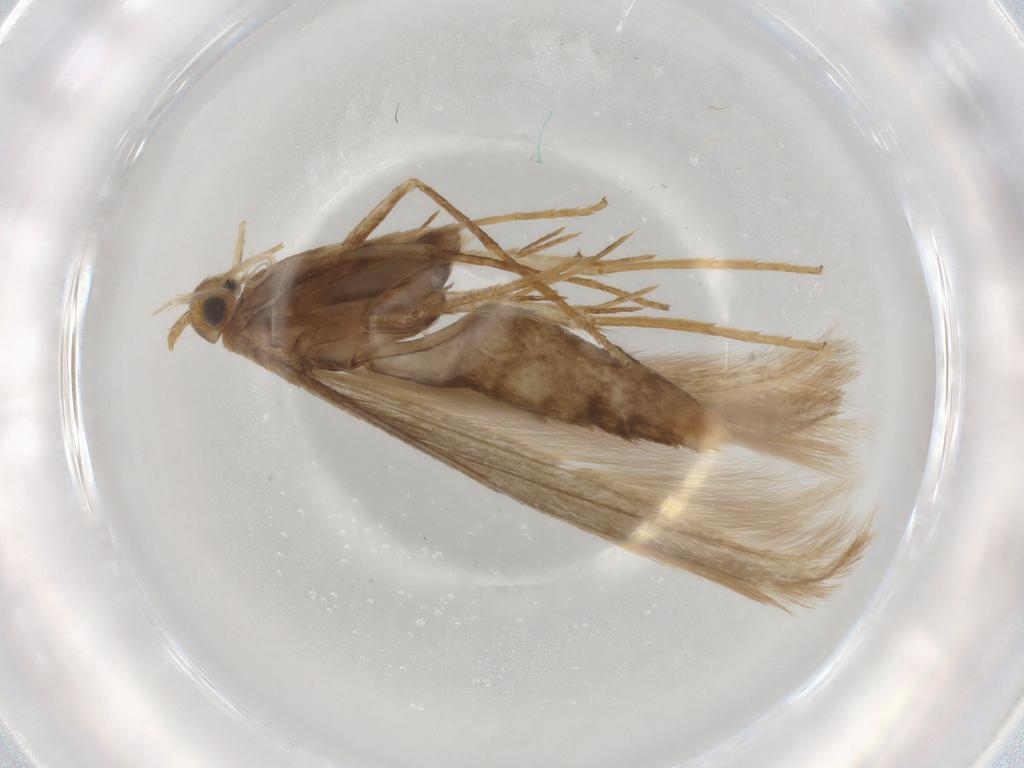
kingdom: Animalia
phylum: Arthropoda
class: Insecta
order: Lepidoptera
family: Coleophoridae
